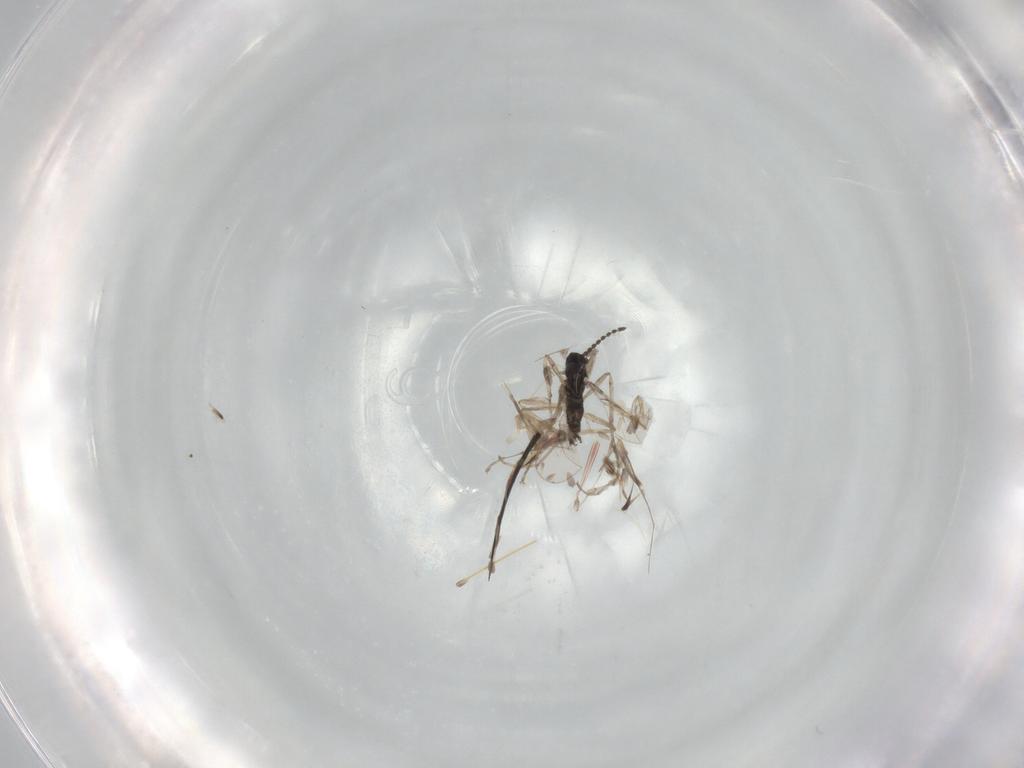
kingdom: Animalia
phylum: Arthropoda
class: Insecta
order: Diptera
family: Cecidomyiidae
